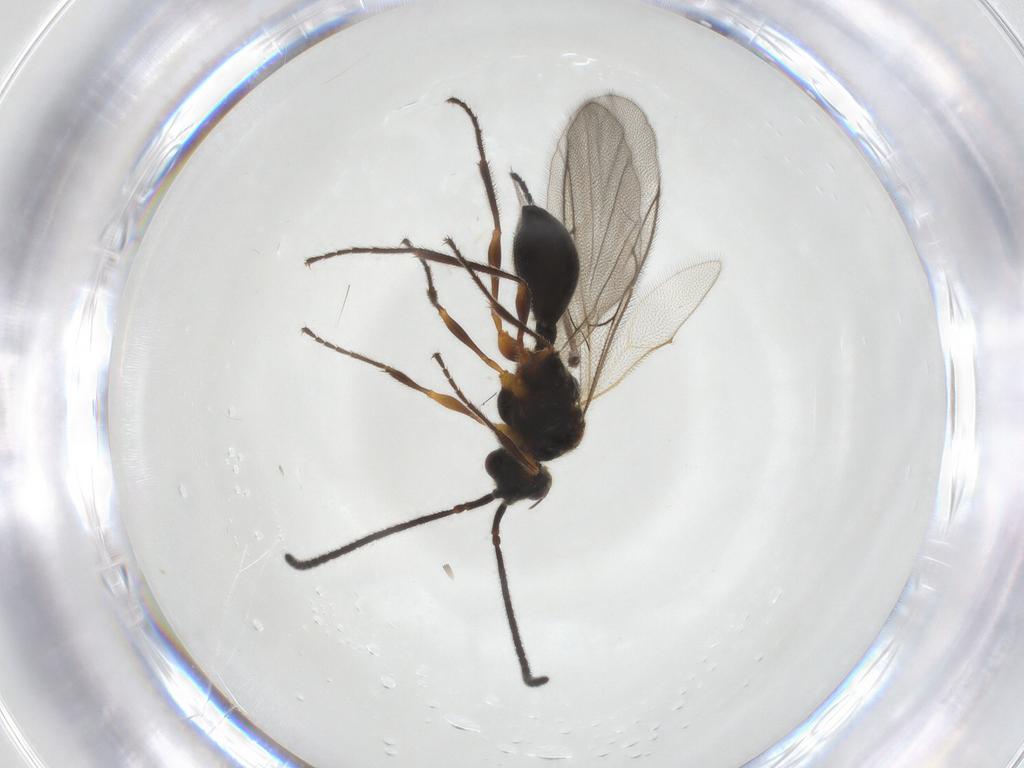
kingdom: Animalia
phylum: Arthropoda
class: Insecta
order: Hymenoptera
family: Diapriidae
